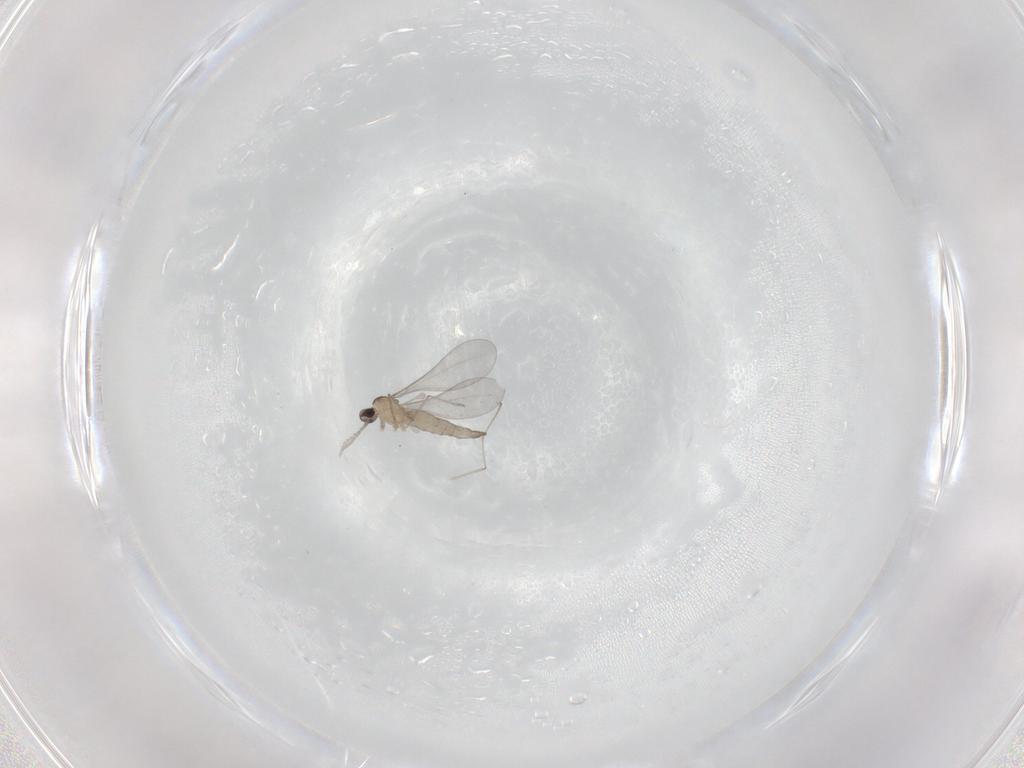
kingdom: Animalia
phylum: Arthropoda
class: Insecta
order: Diptera
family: Cecidomyiidae
